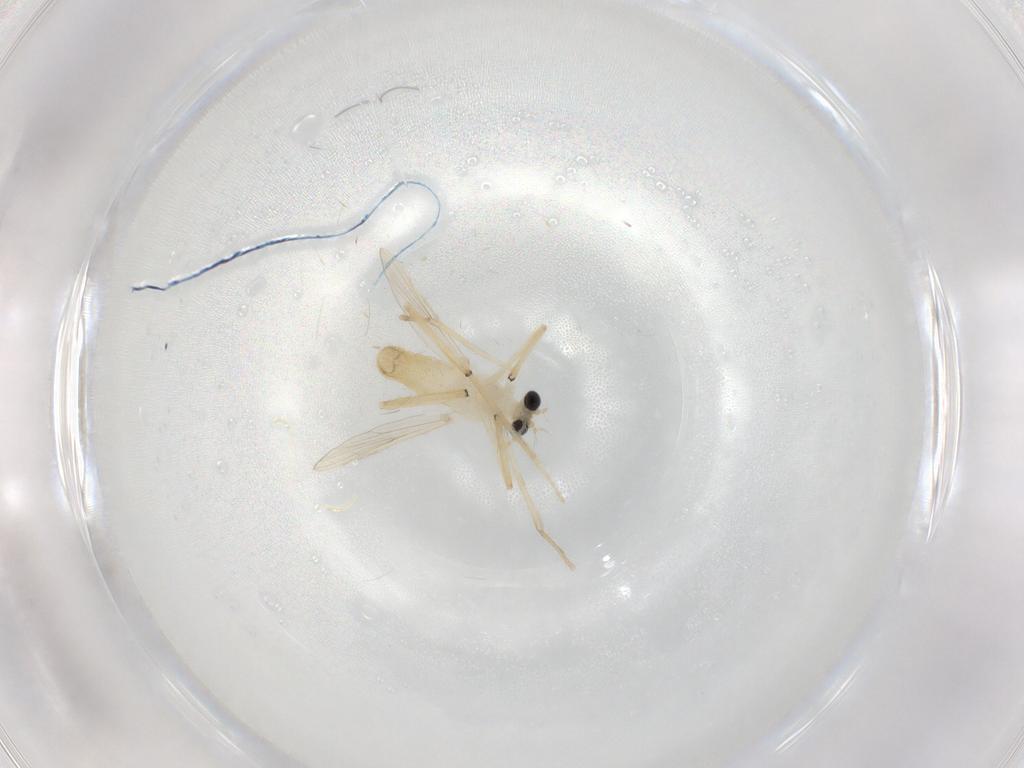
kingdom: Animalia
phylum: Arthropoda
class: Insecta
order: Diptera
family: Chironomidae
